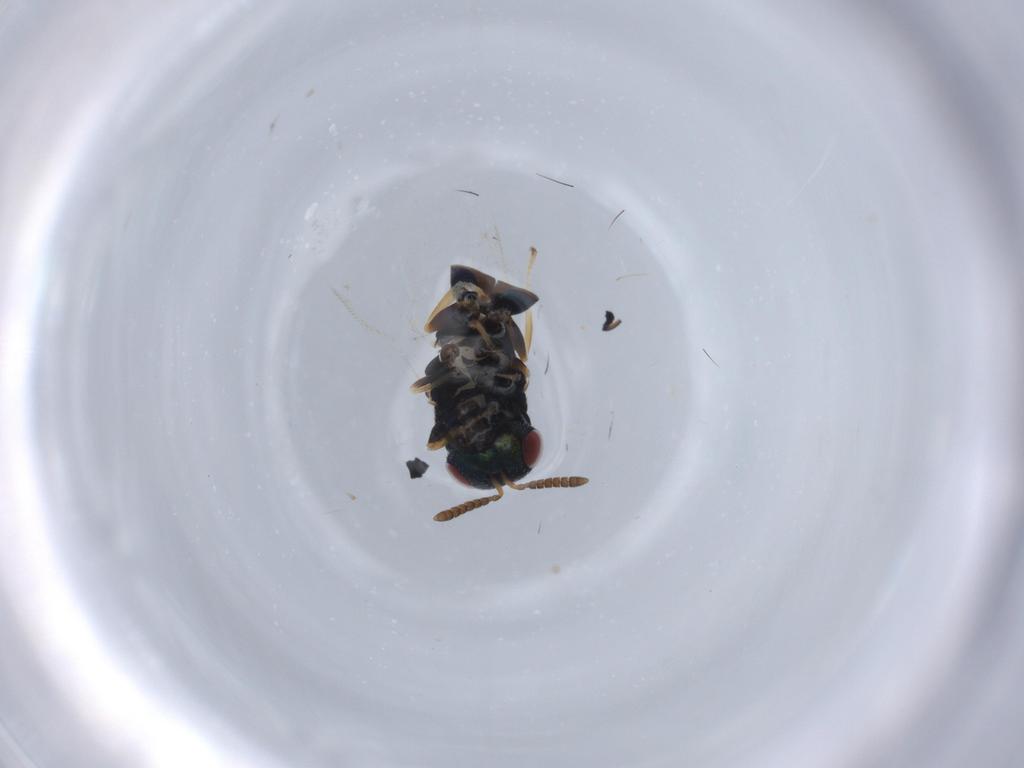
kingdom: Animalia
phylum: Arthropoda
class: Insecta
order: Hymenoptera
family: Pteromalidae
